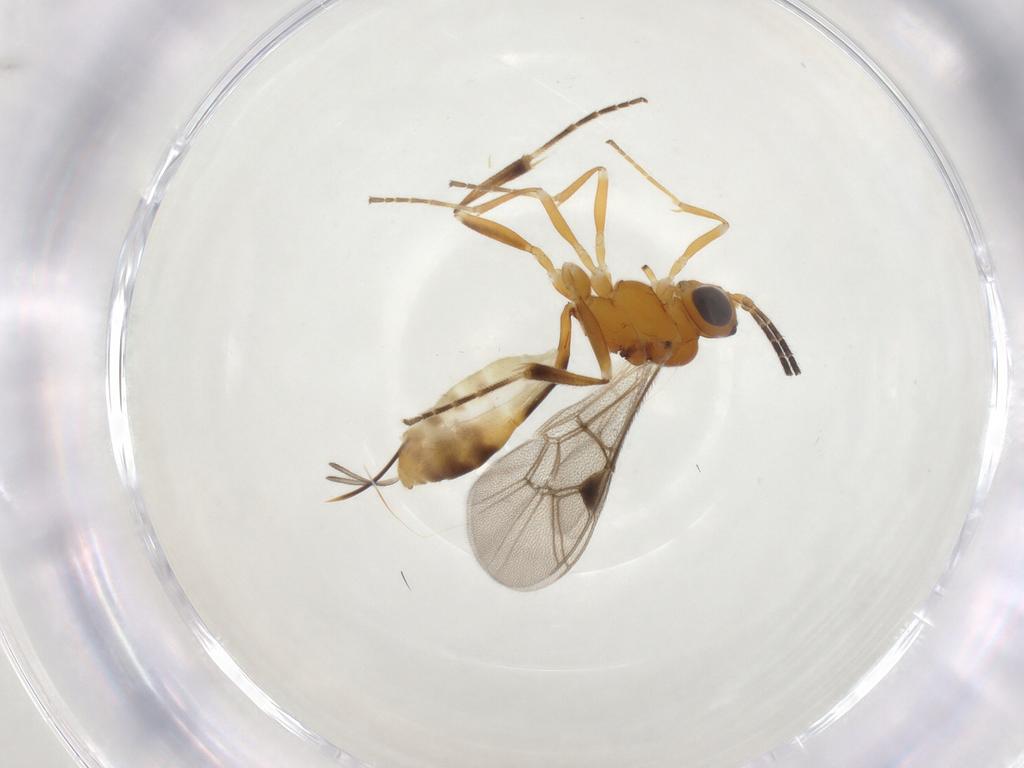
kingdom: Animalia
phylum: Arthropoda
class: Insecta
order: Hymenoptera
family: Ichneumonidae
